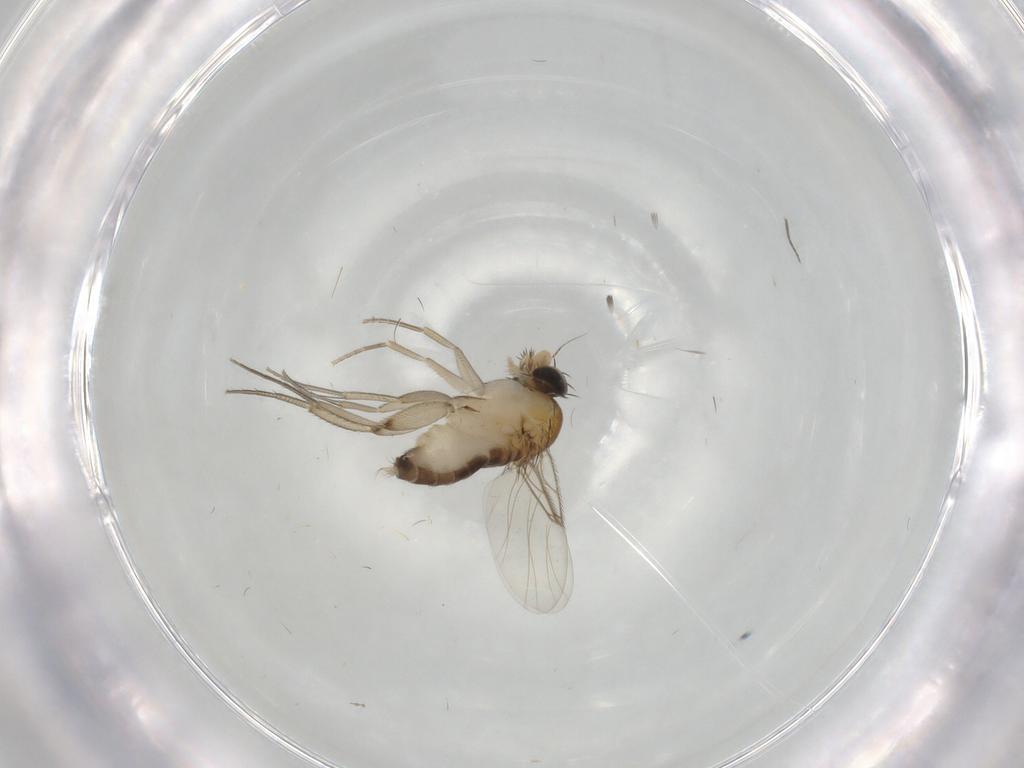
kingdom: Animalia
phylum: Arthropoda
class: Insecta
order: Diptera
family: Phoridae
